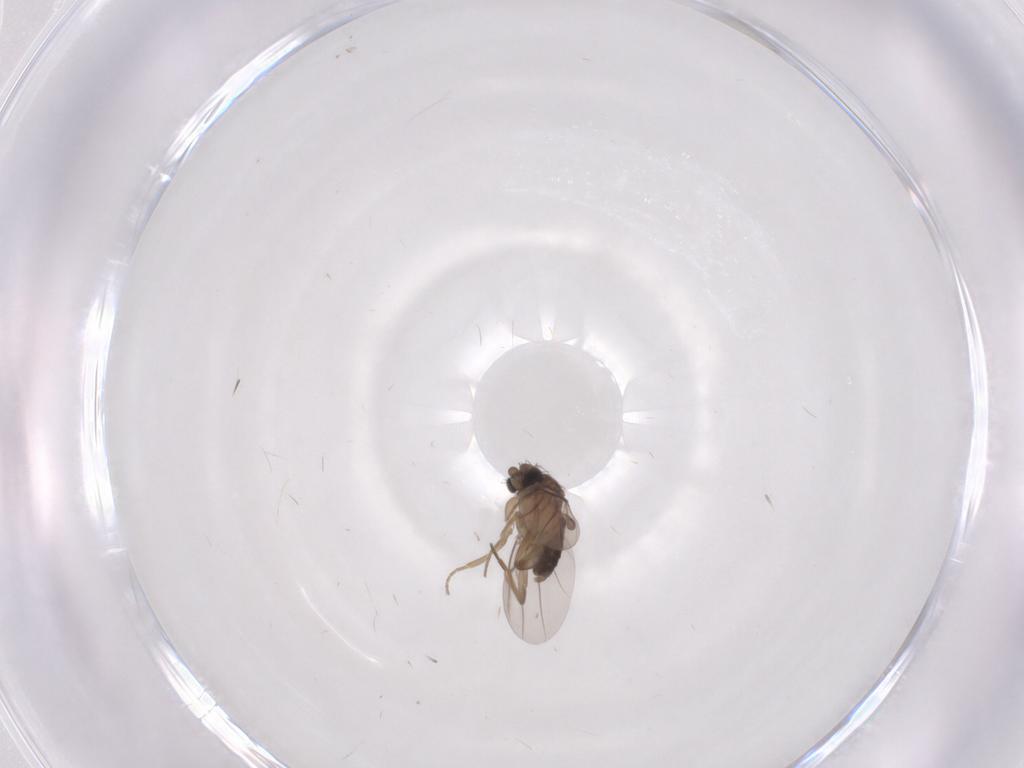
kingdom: Animalia
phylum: Arthropoda
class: Insecta
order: Diptera
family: Phoridae
